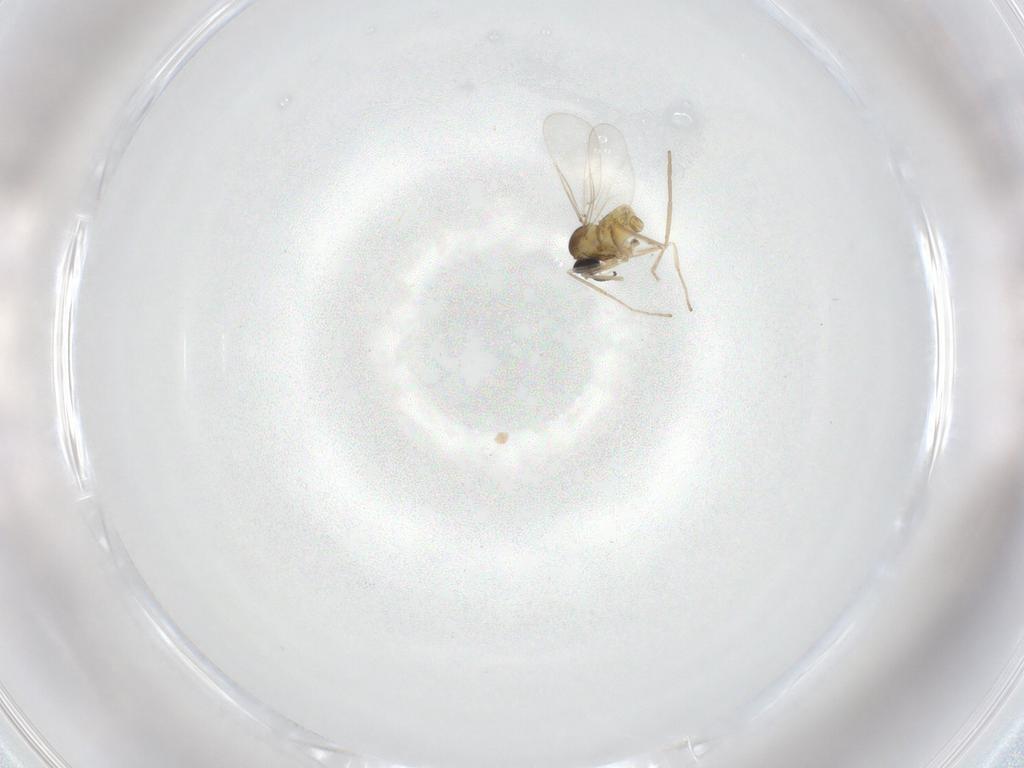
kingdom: Animalia
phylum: Arthropoda
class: Insecta
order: Diptera
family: Cecidomyiidae
